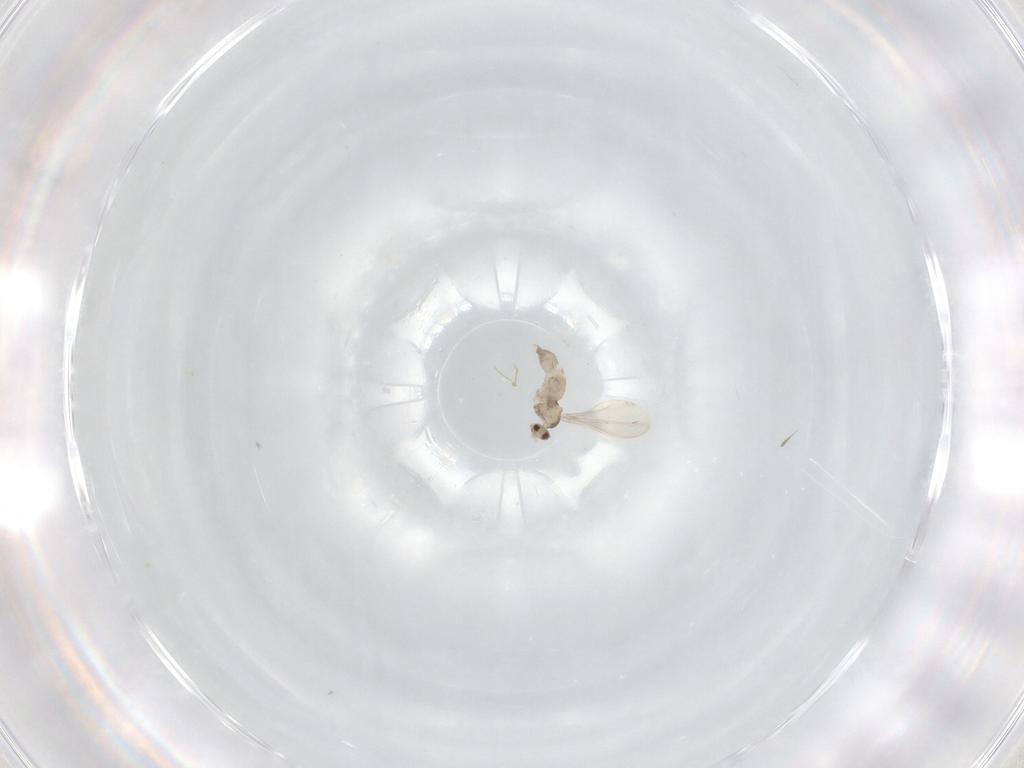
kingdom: Animalia
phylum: Arthropoda
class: Insecta
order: Diptera
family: Cecidomyiidae
